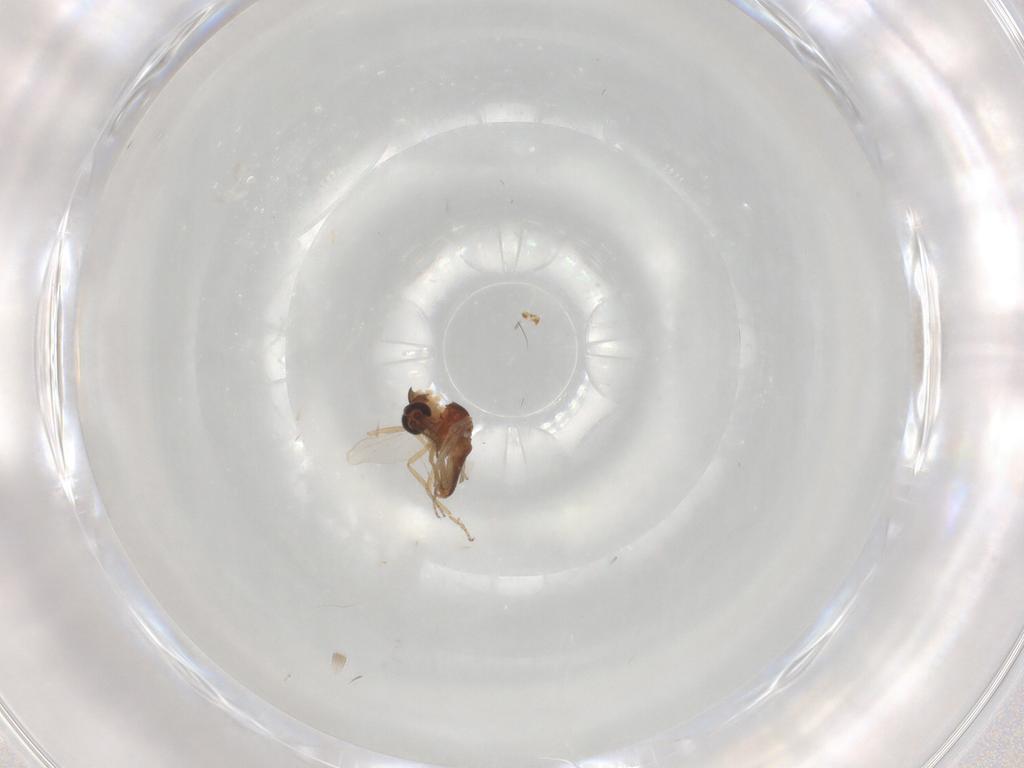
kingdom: Animalia
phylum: Arthropoda
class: Insecta
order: Diptera
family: Ceratopogonidae
